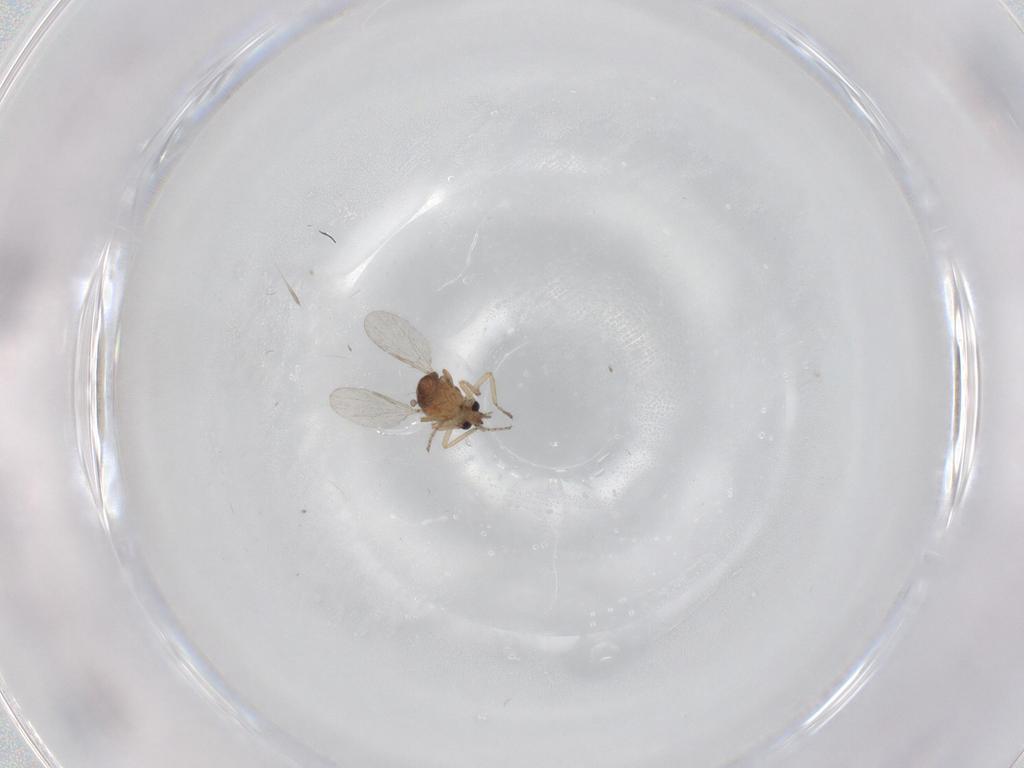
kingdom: Animalia
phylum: Arthropoda
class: Insecta
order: Diptera
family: Ceratopogonidae
